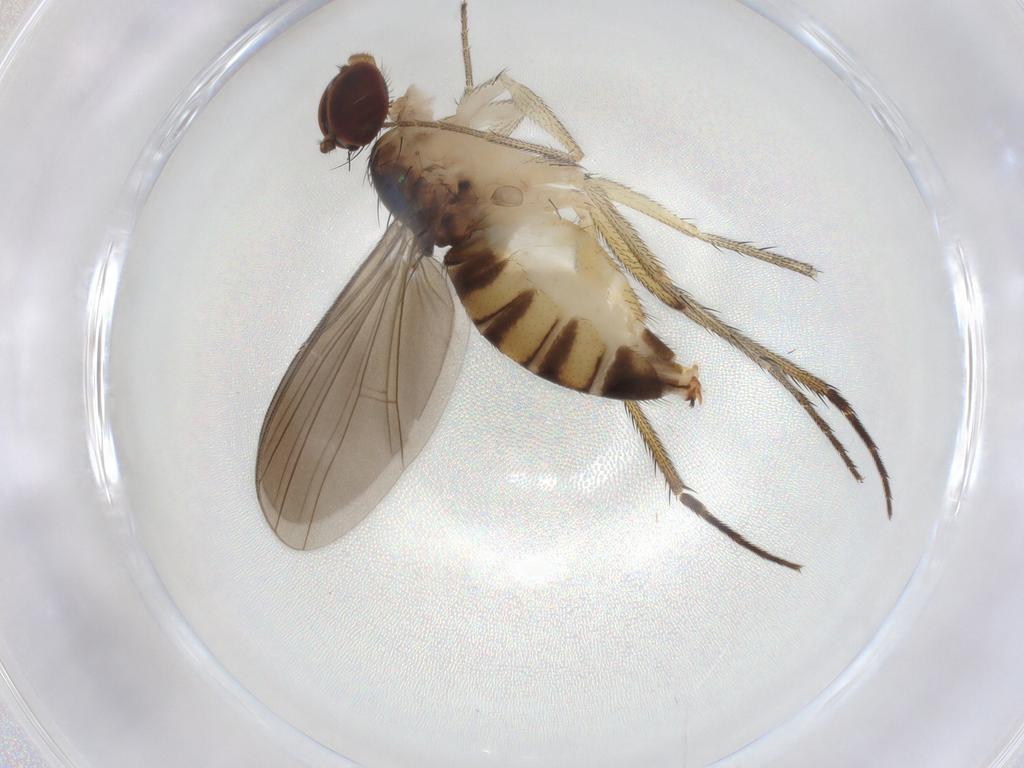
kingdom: Animalia
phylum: Arthropoda
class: Insecta
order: Diptera
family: Dolichopodidae
